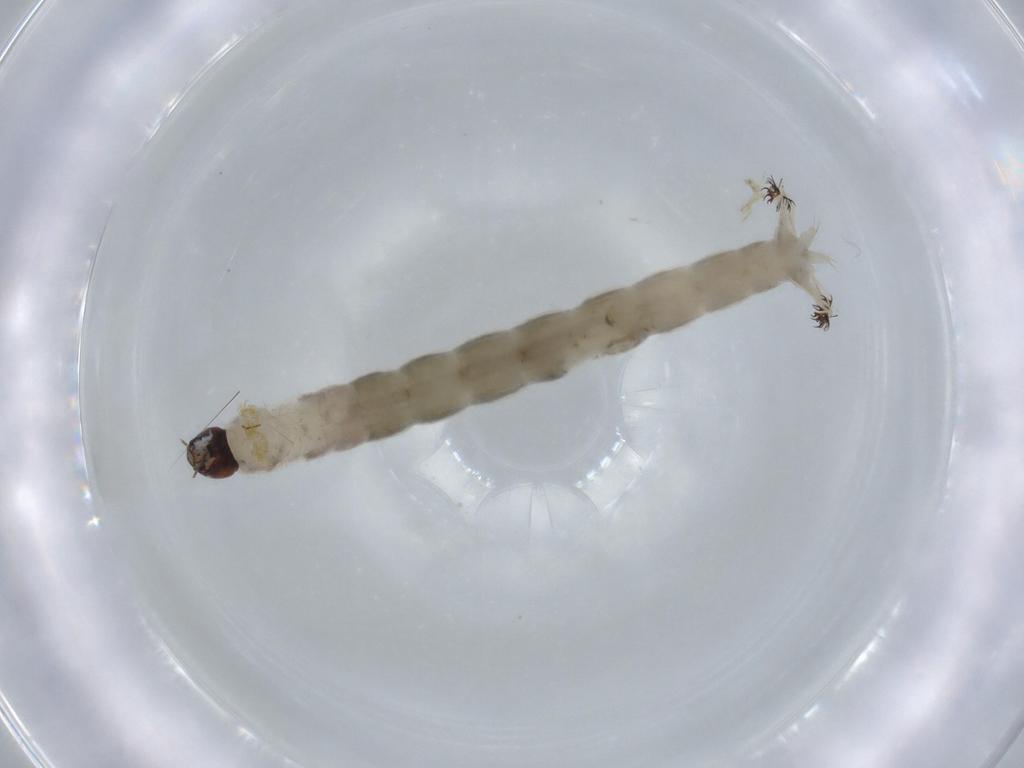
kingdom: Animalia
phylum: Arthropoda
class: Insecta
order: Diptera
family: Chironomidae
